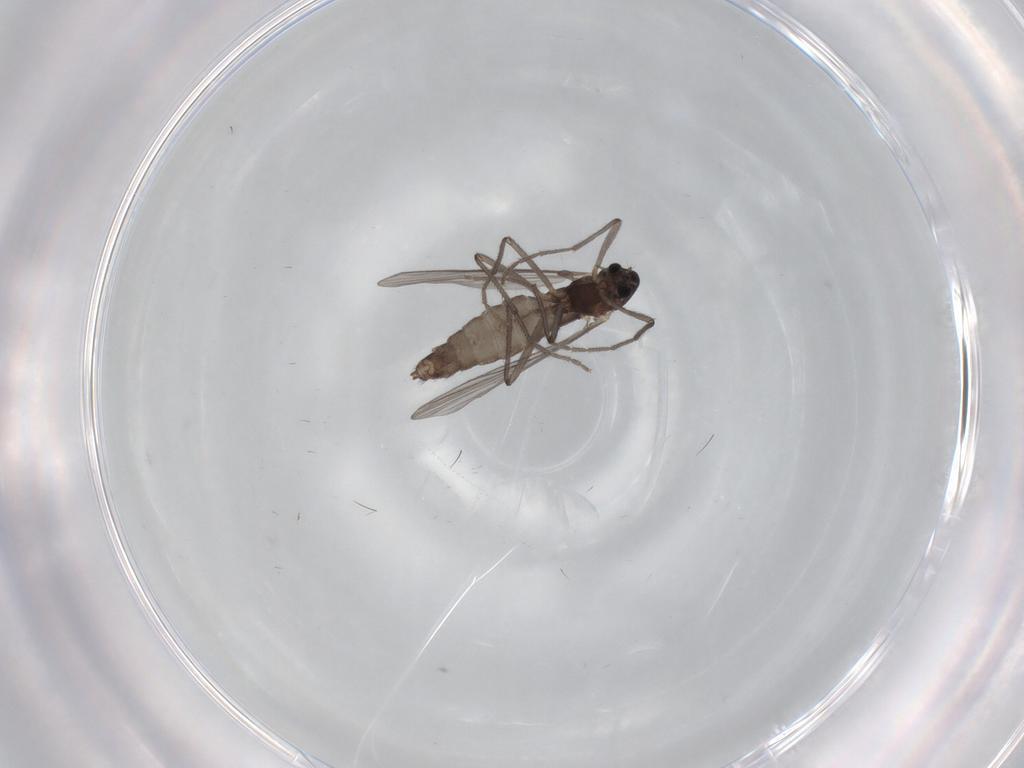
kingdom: Animalia
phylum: Arthropoda
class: Insecta
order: Diptera
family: Chironomidae
